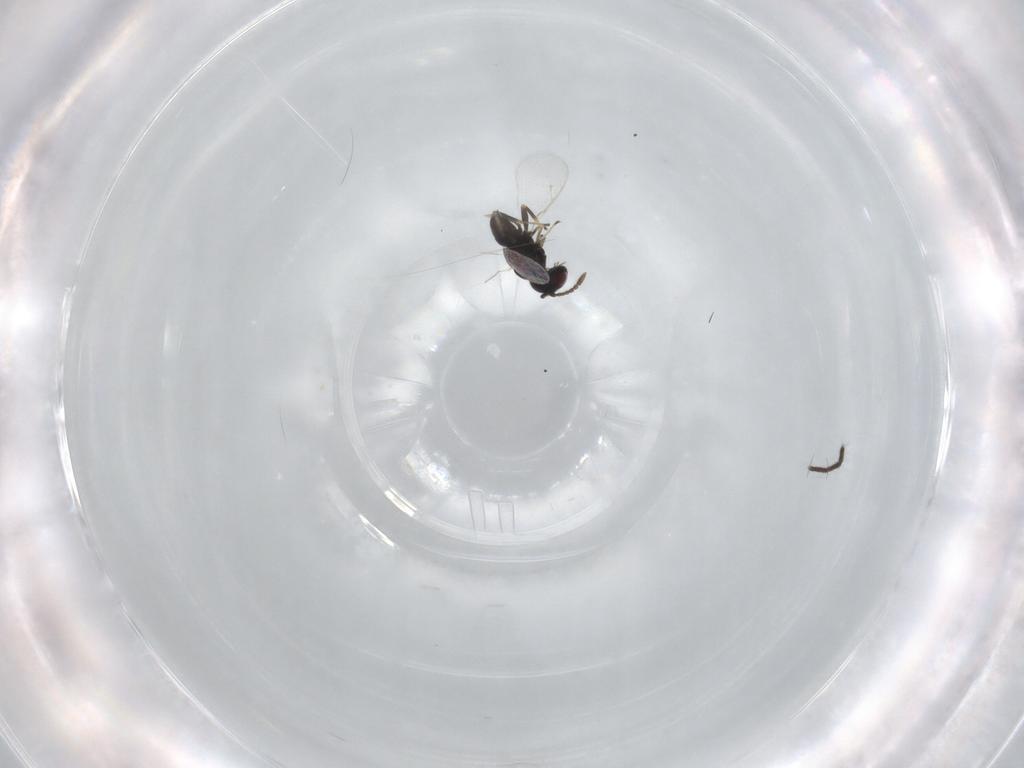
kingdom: Animalia
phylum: Arthropoda
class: Insecta
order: Hymenoptera
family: Pteromalidae
